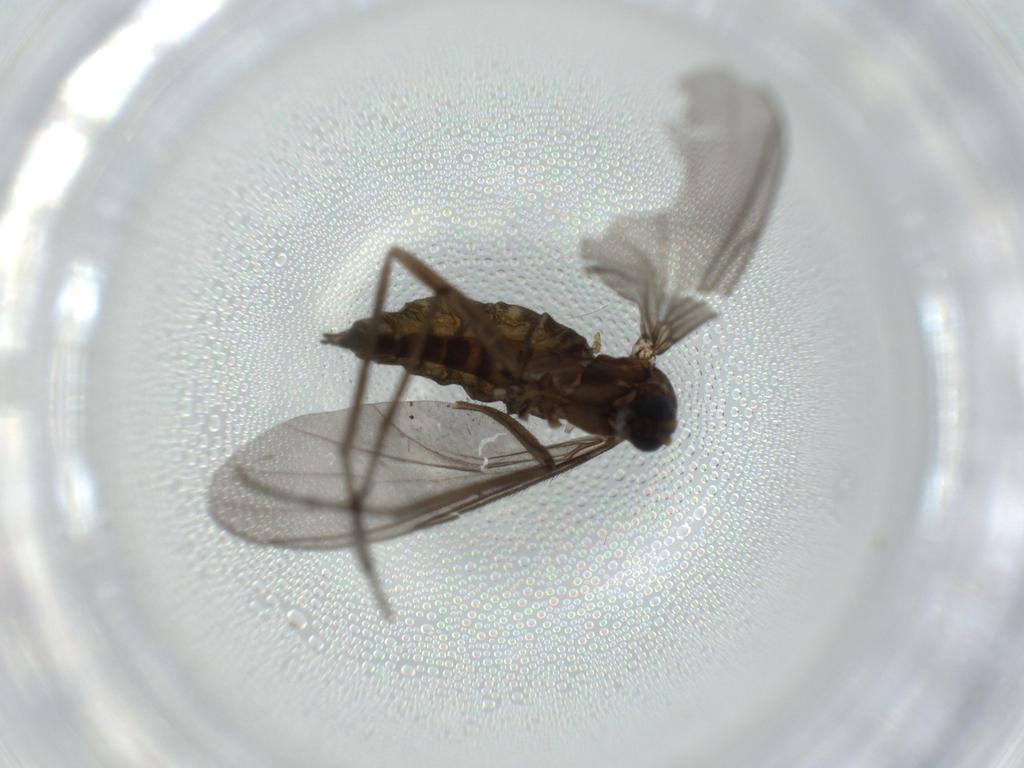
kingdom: Animalia
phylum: Arthropoda
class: Insecta
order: Diptera
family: Sciaridae
